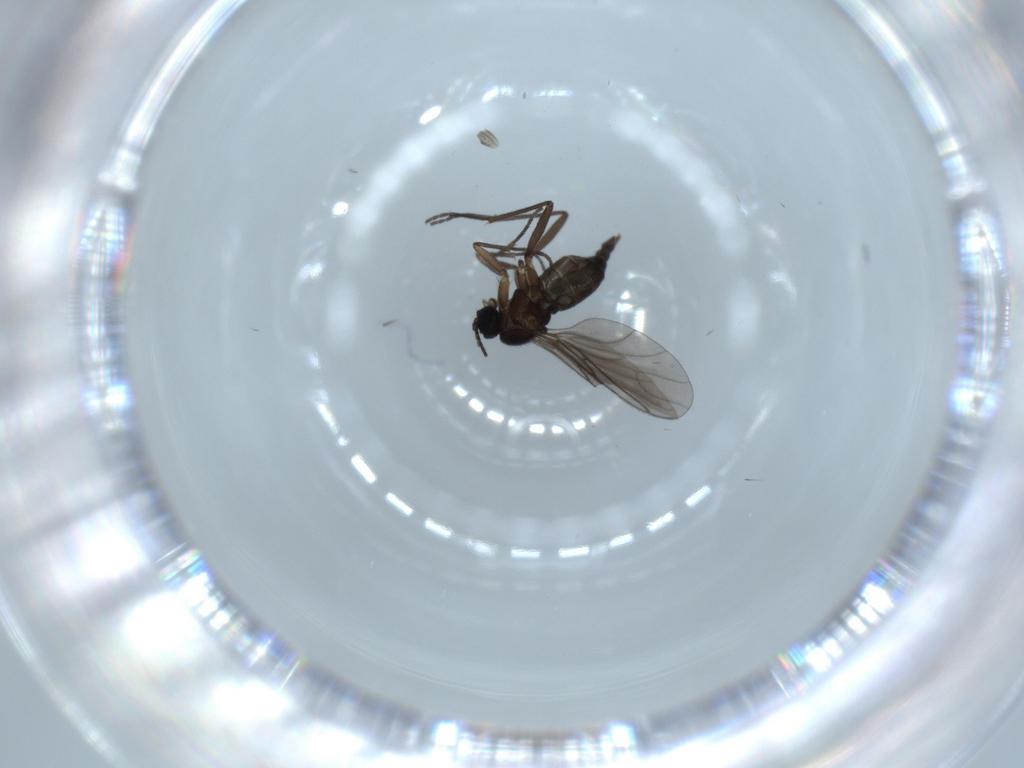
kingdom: Animalia
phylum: Arthropoda
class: Insecta
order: Diptera
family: Sciaridae
